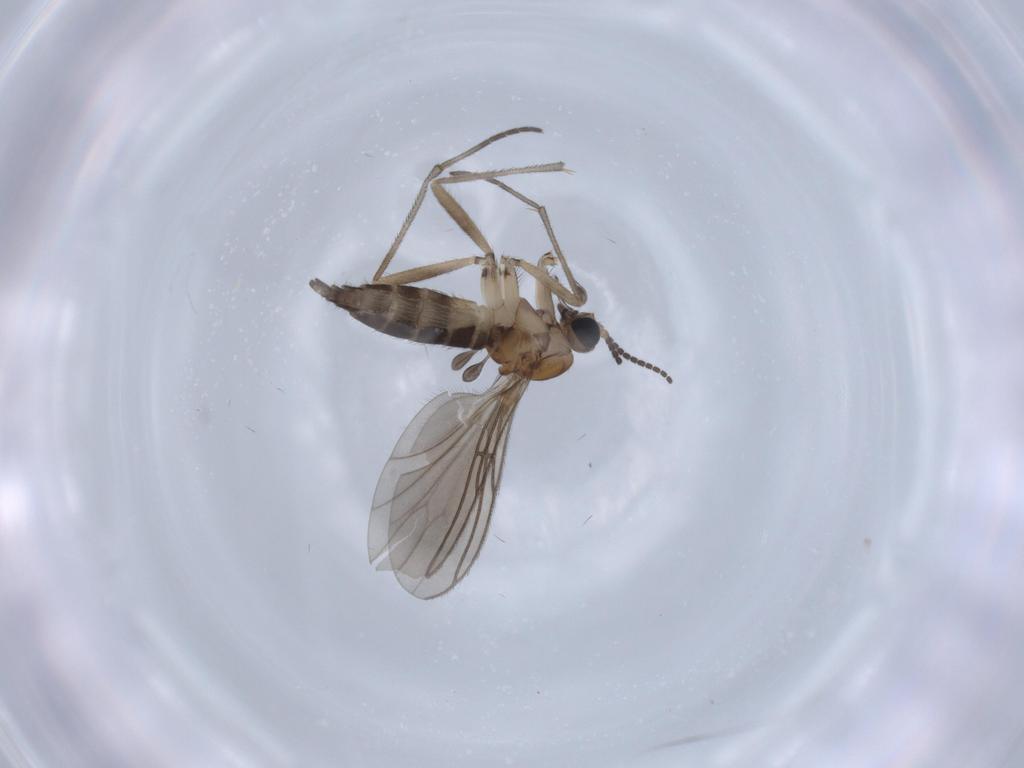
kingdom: Animalia
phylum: Arthropoda
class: Insecta
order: Diptera
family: Sciaridae
